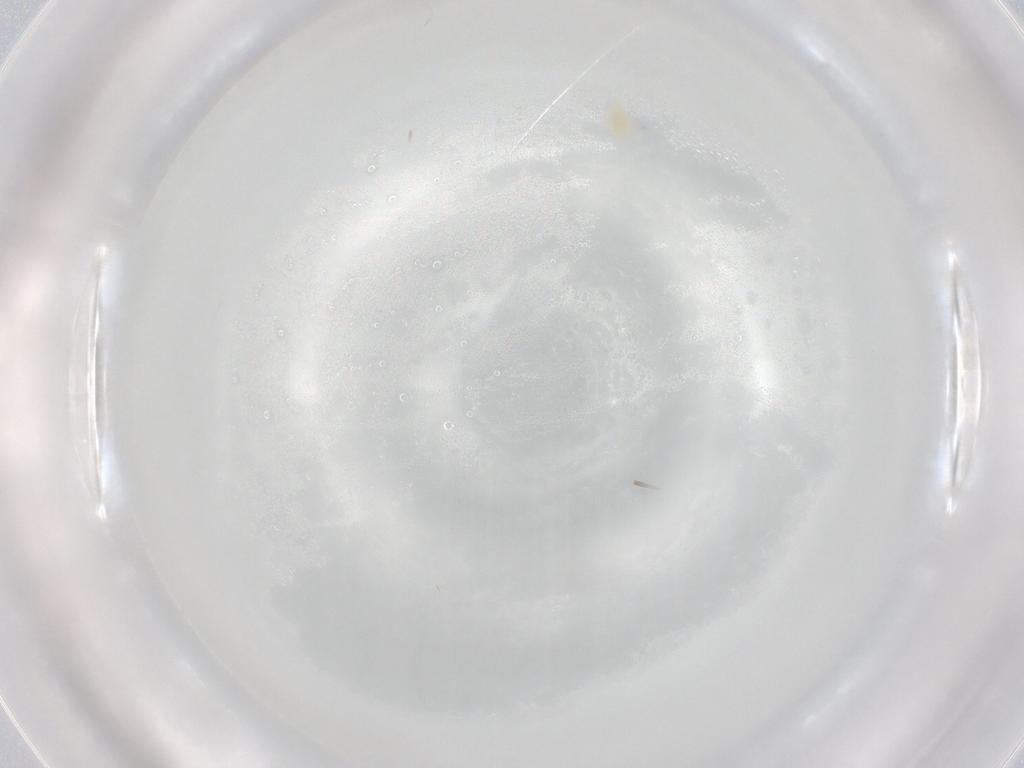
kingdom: Animalia
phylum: Arthropoda
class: Arachnida
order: Trombidiformes
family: Eupodidae
